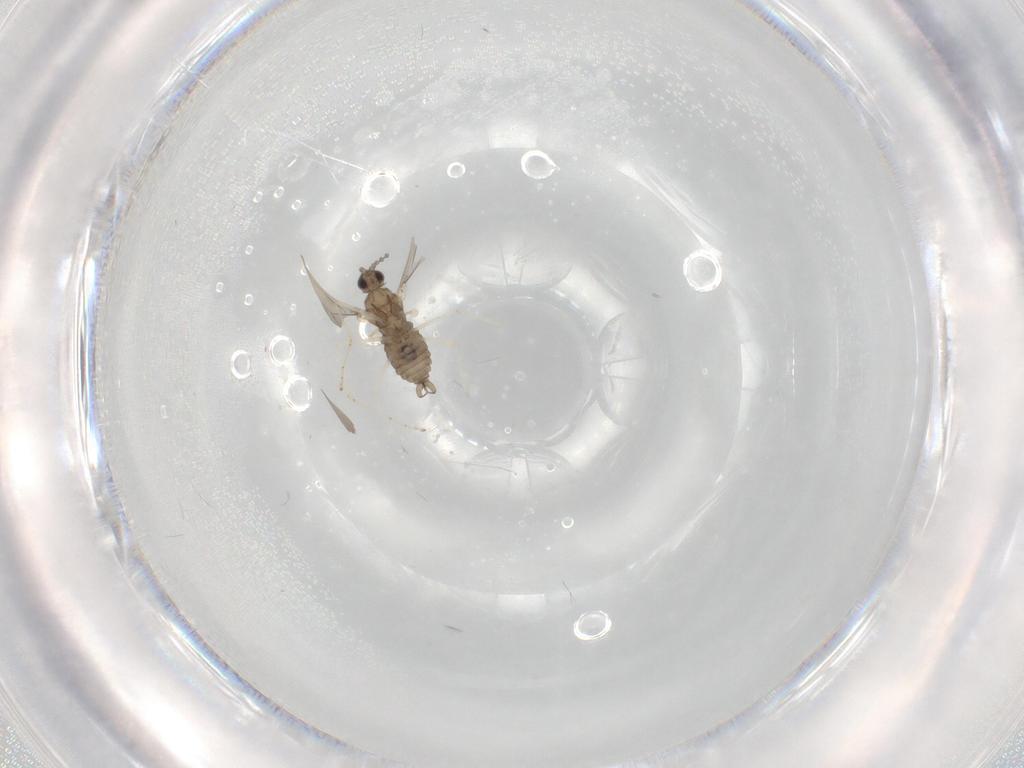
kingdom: Animalia
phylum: Arthropoda
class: Insecta
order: Diptera
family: Cecidomyiidae
